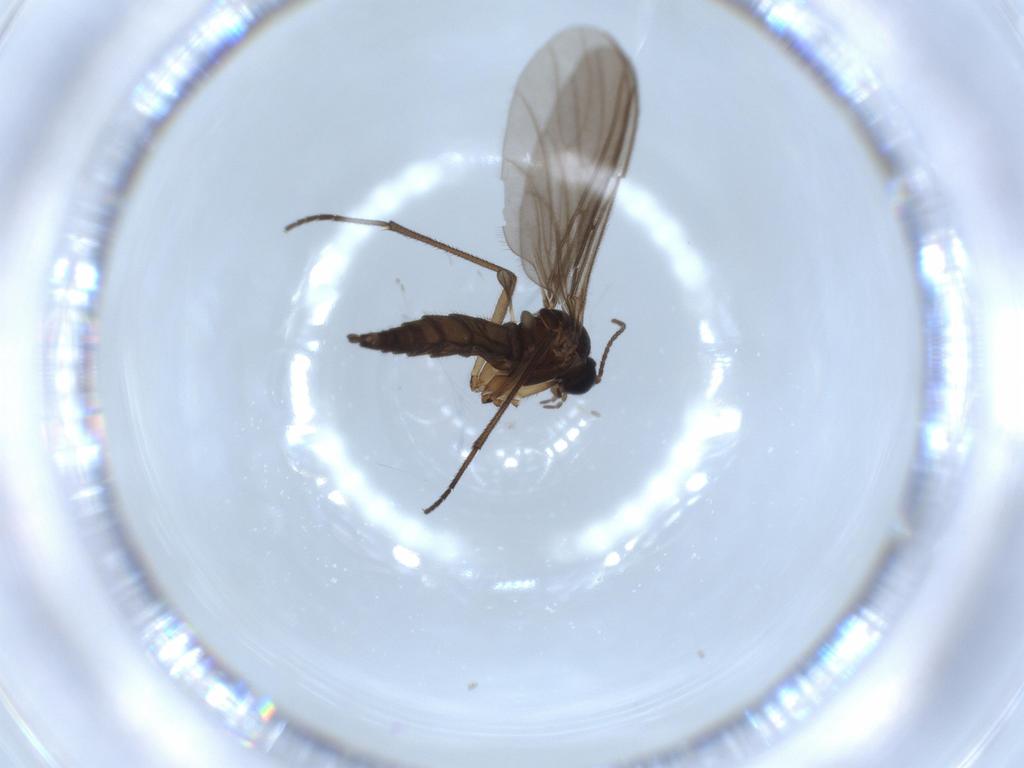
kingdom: Animalia
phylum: Arthropoda
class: Insecta
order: Diptera
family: Sciaridae
